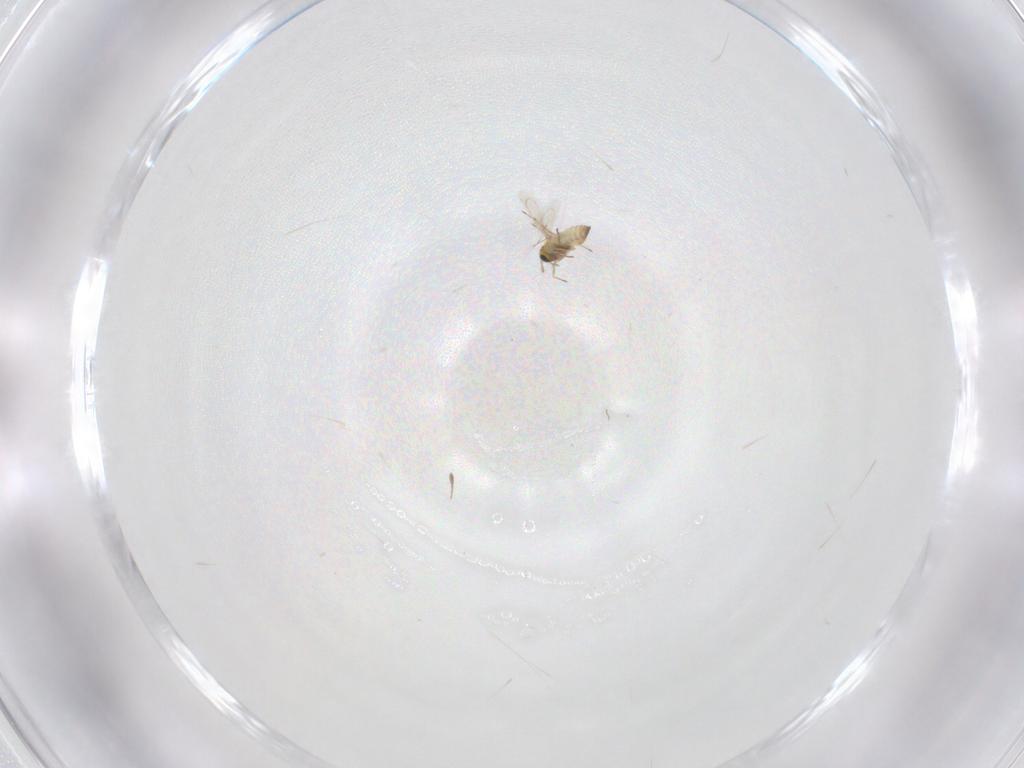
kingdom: Animalia
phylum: Arthropoda
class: Insecta
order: Hymenoptera
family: Trichogrammatidae
